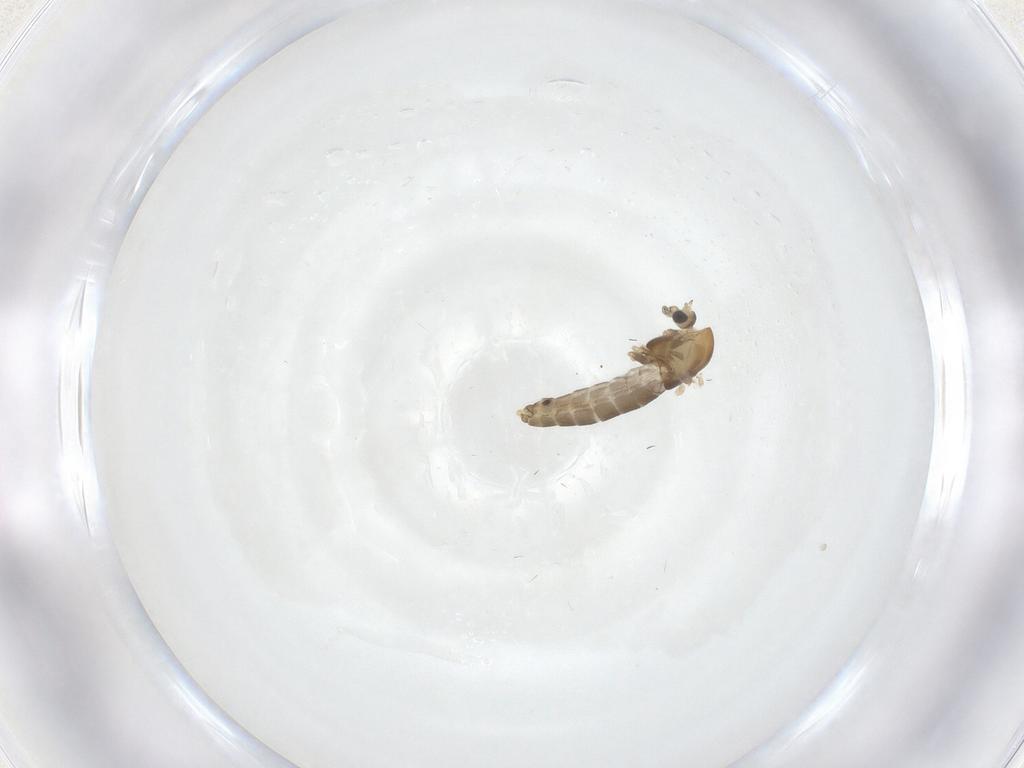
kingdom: Animalia
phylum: Arthropoda
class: Insecta
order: Diptera
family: Chironomidae
